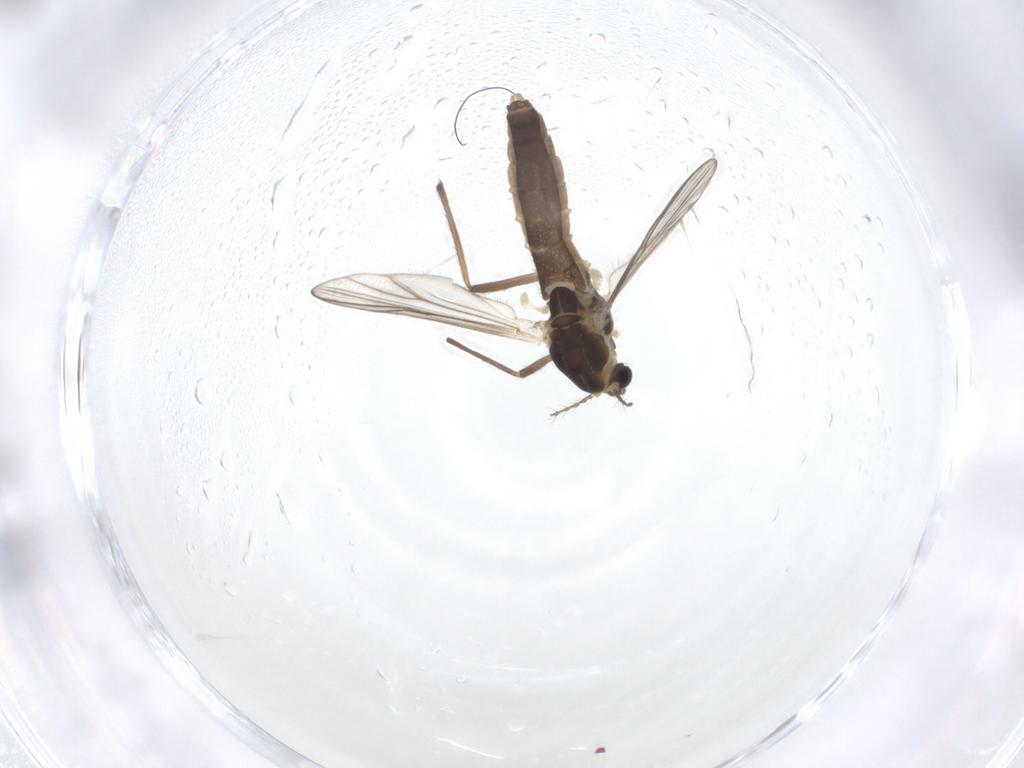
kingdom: Animalia
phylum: Arthropoda
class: Insecta
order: Diptera
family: Chironomidae
